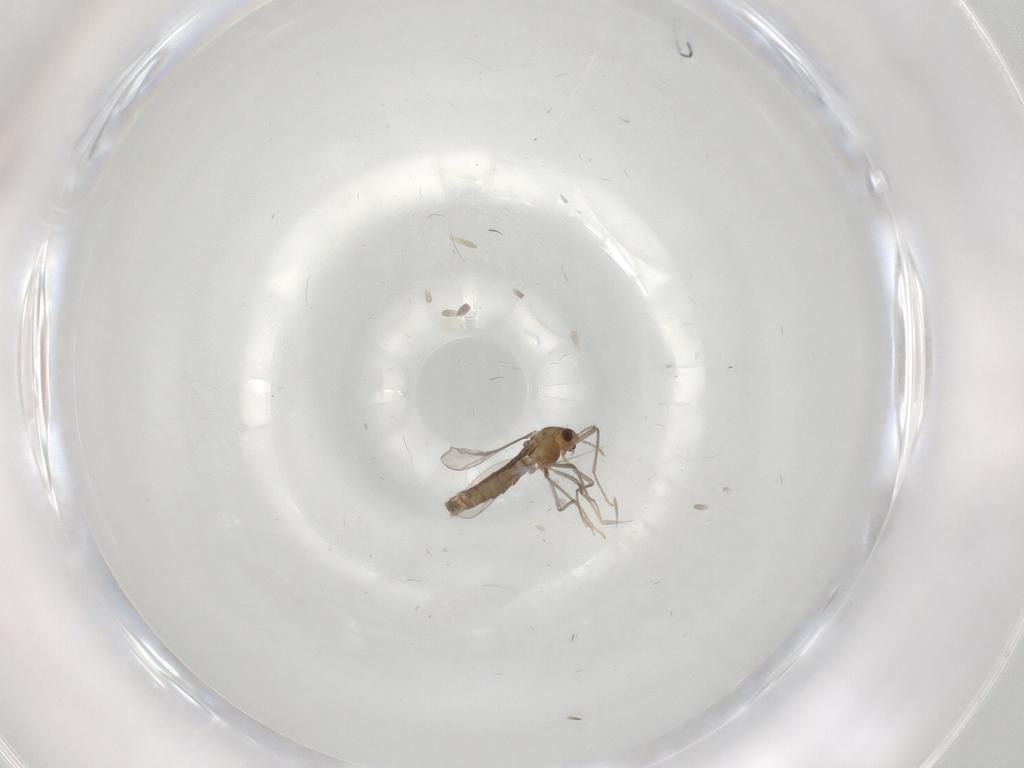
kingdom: Animalia
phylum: Arthropoda
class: Insecta
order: Diptera
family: Chironomidae
